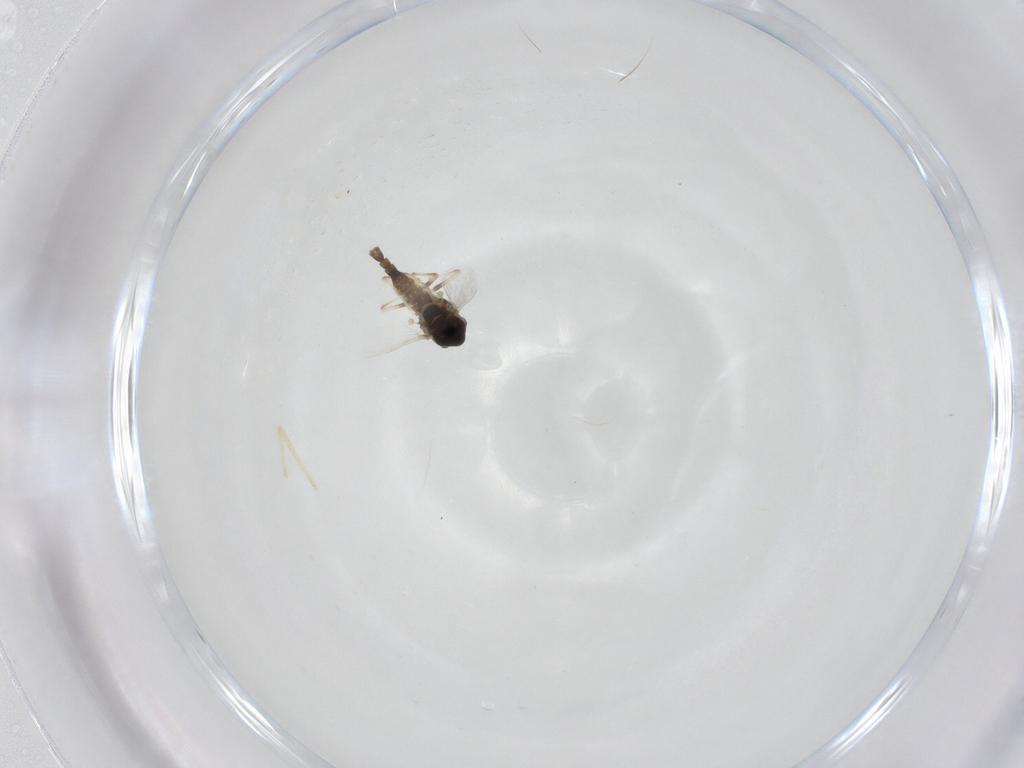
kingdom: Animalia
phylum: Arthropoda
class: Insecta
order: Diptera
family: Chironomidae
